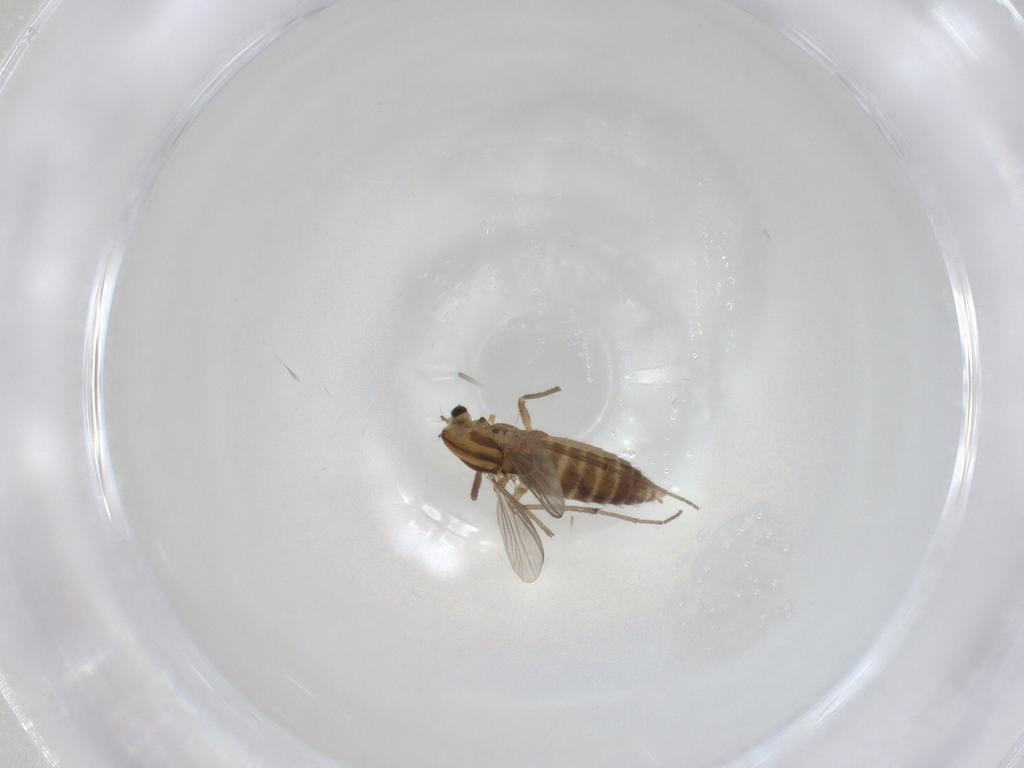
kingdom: Animalia
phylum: Arthropoda
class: Insecta
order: Diptera
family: Chironomidae
